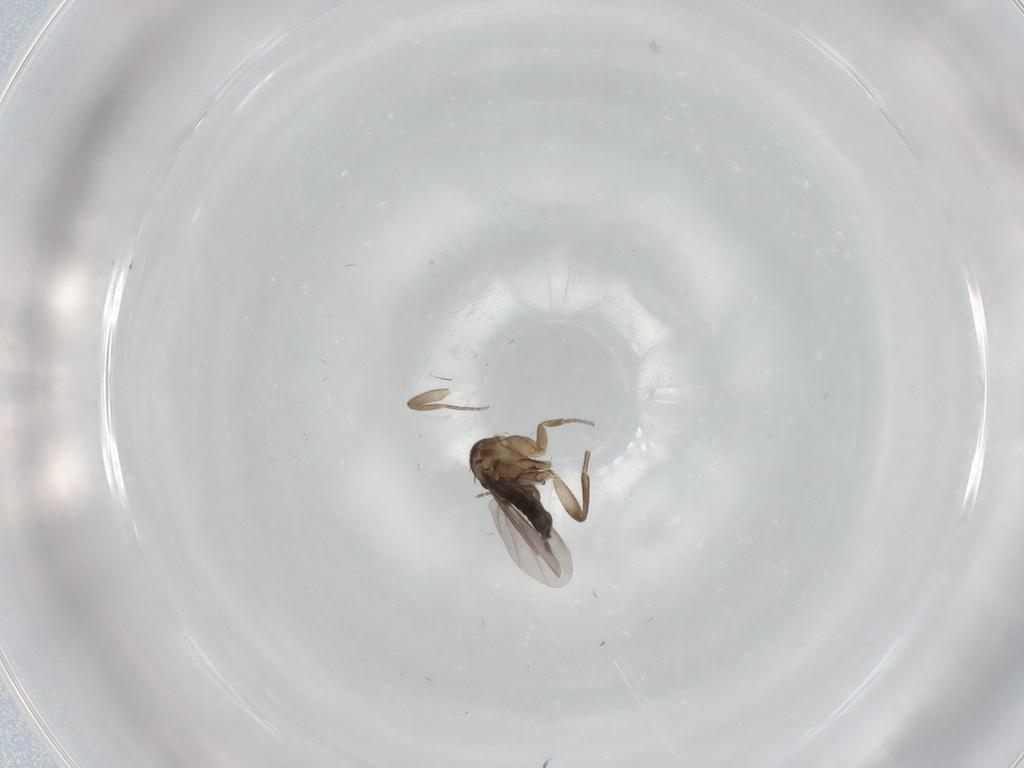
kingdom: Animalia
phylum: Arthropoda
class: Insecta
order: Diptera
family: Phoridae
